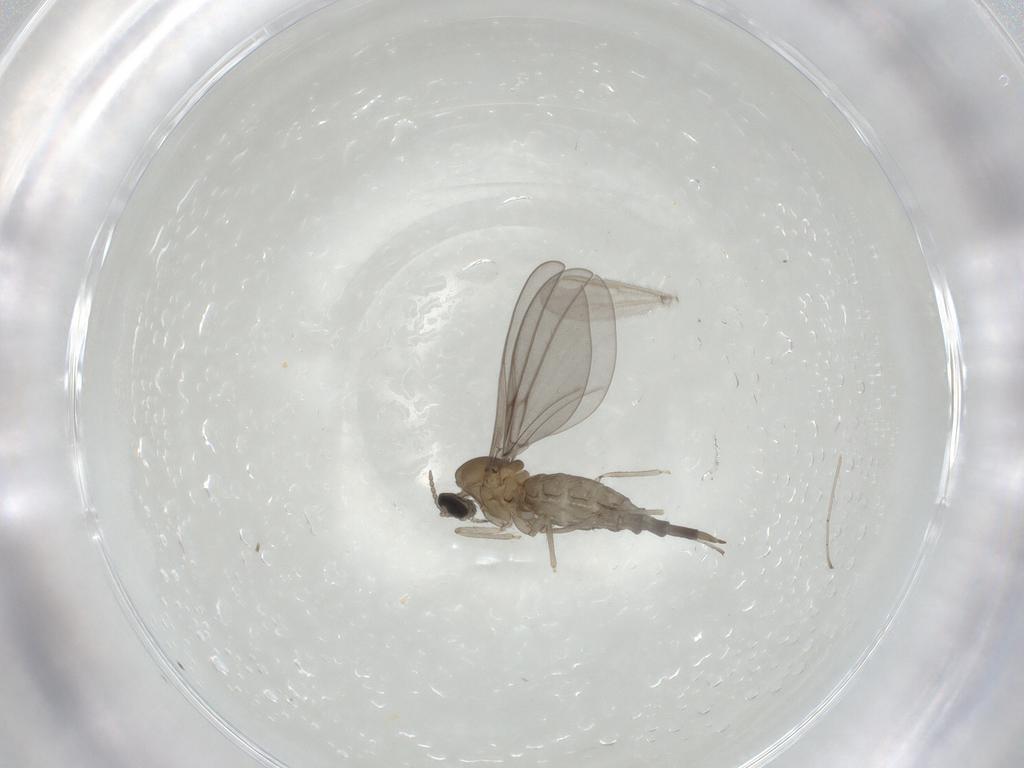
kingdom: Animalia
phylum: Arthropoda
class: Insecta
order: Diptera
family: Cecidomyiidae
